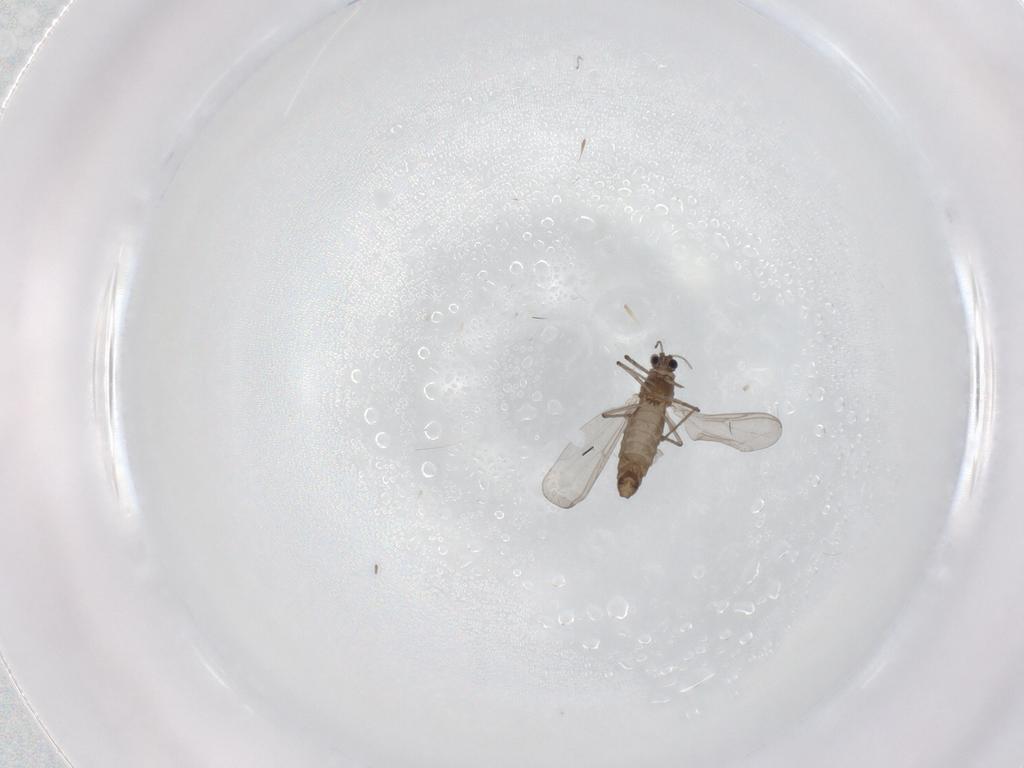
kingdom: Animalia
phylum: Arthropoda
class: Insecta
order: Diptera
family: Chironomidae
